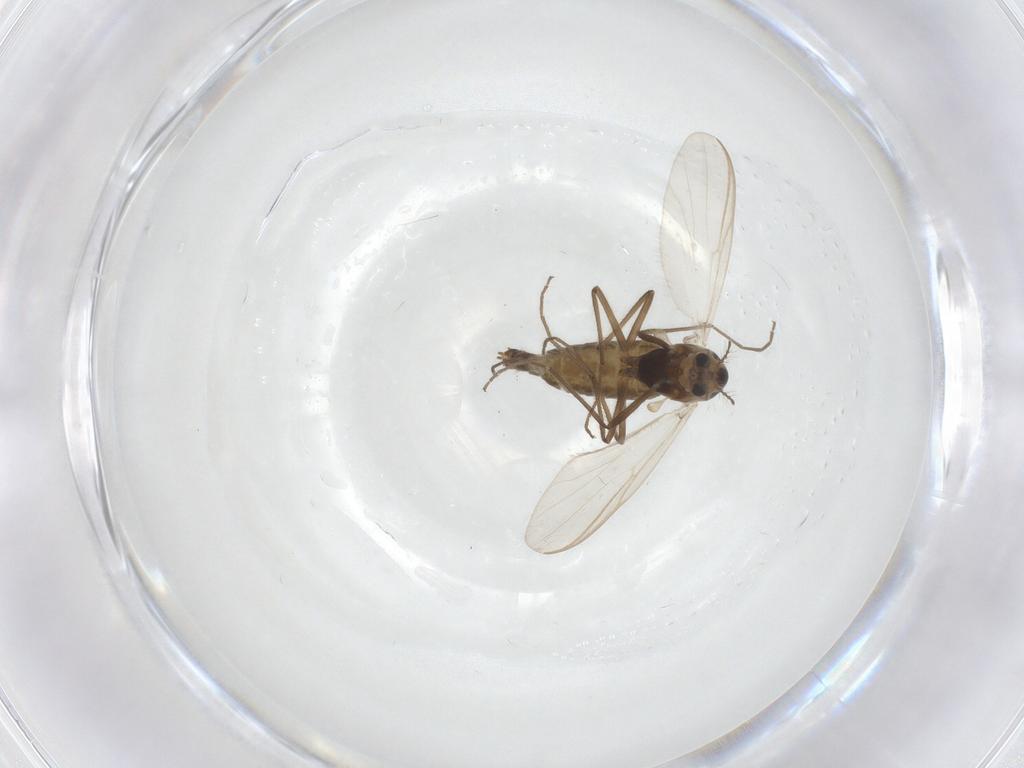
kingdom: Animalia
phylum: Arthropoda
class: Insecta
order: Diptera
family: Chironomidae
